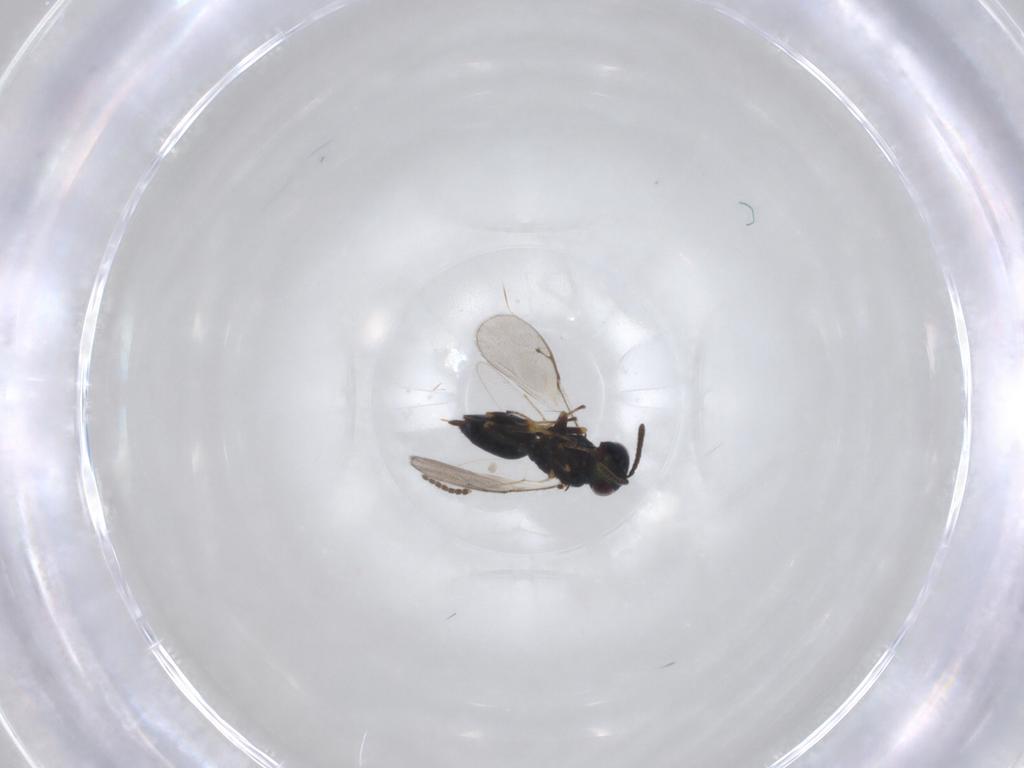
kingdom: Animalia
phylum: Arthropoda
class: Insecta
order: Hymenoptera
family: Pteromalidae
